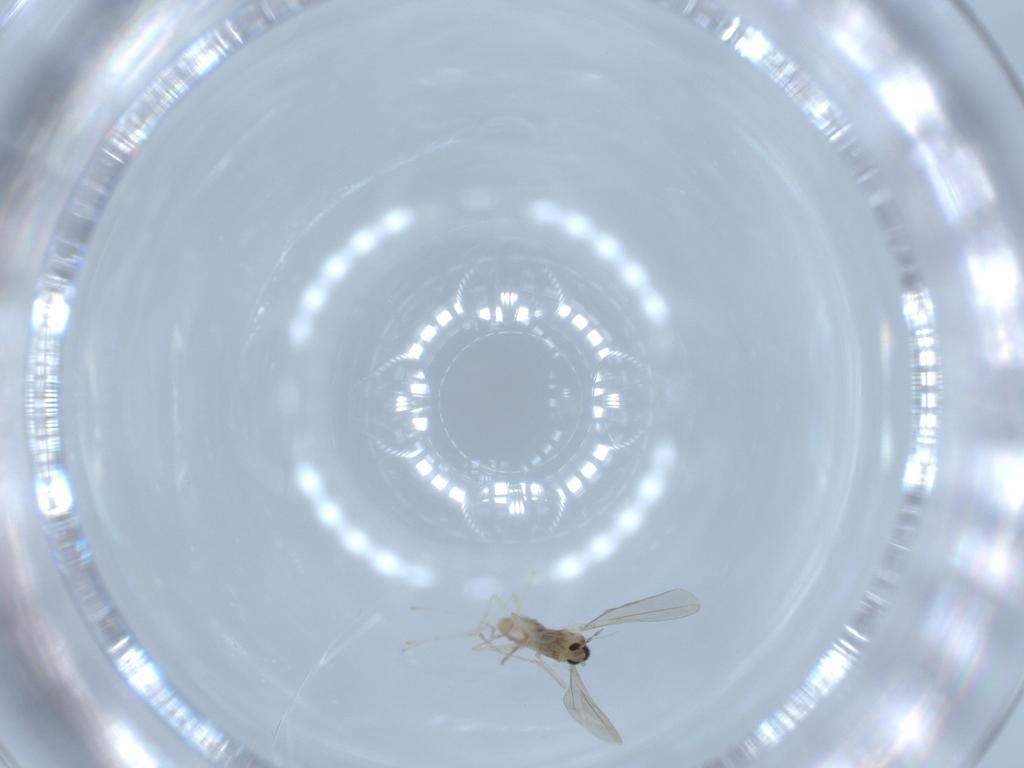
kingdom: Animalia
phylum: Arthropoda
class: Insecta
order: Diptera
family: Cecidomyiidae
